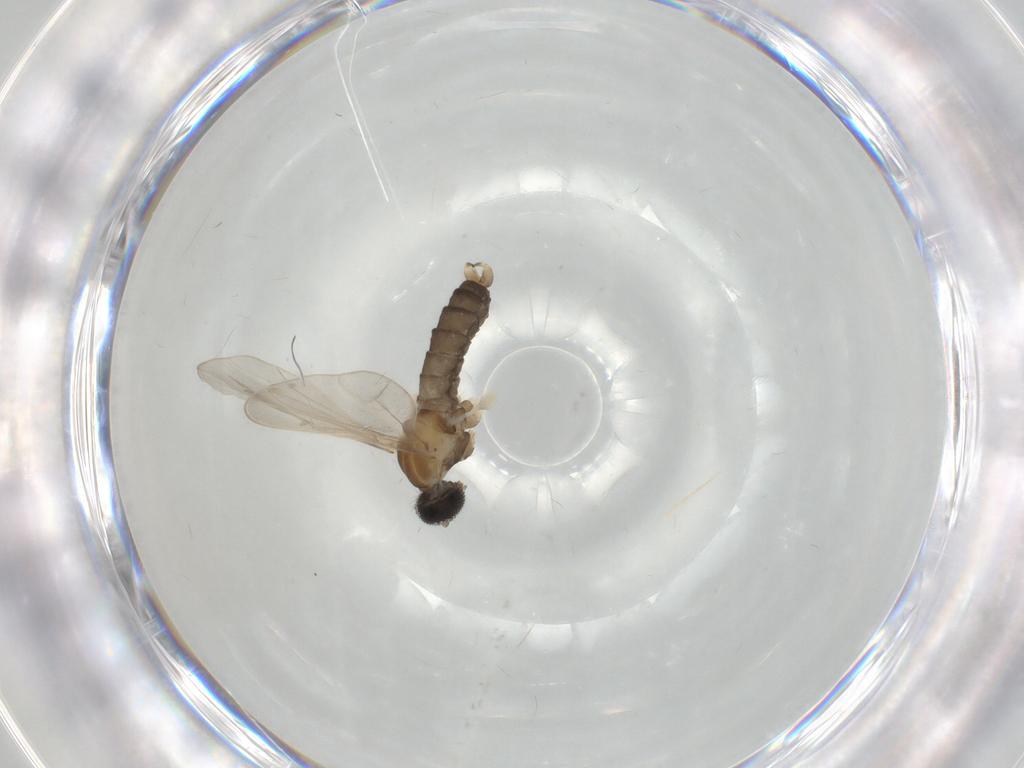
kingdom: Animalia
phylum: Arthropoda
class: Insecta
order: Diptera
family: Cecidomyiidae
